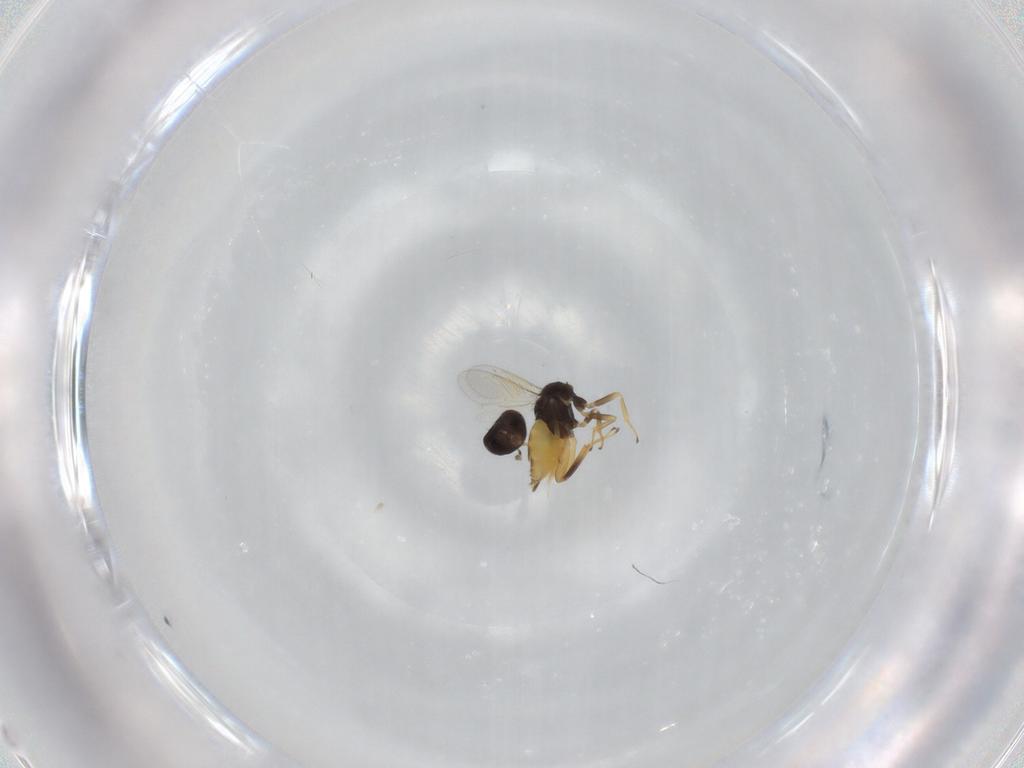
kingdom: Animalia
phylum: Arthropoda
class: Insecta
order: Hymenoptera
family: Aphelinidae
